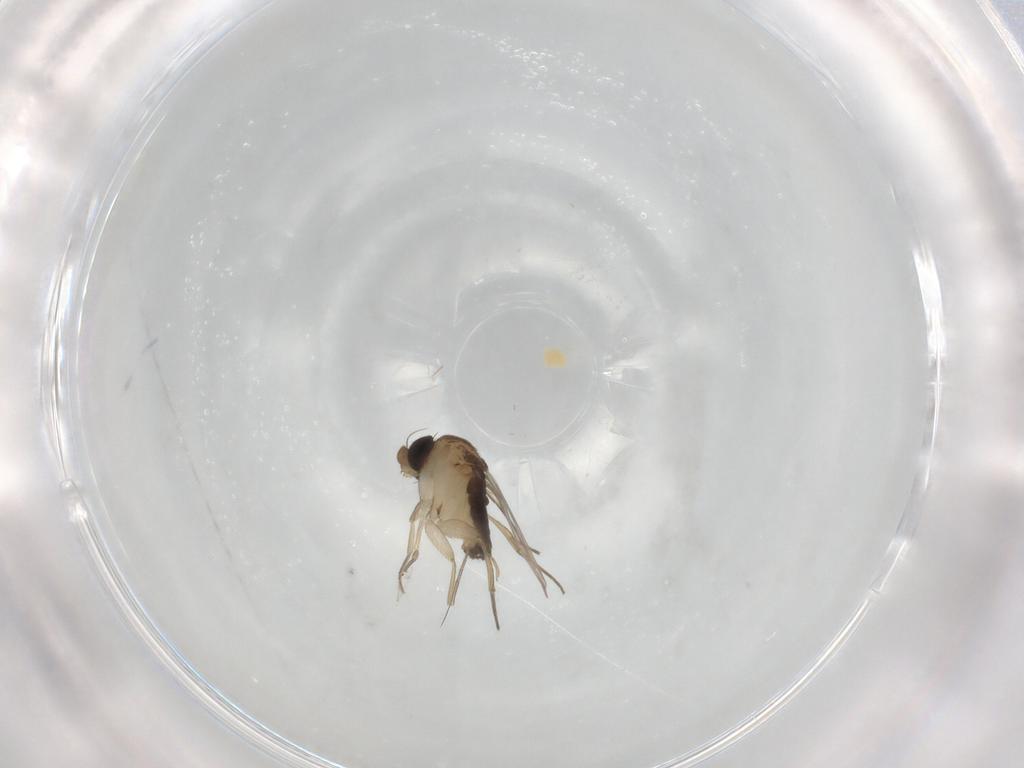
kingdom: Animalia
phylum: Arthropoda
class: Insecta
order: Diptera
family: Phoridae
